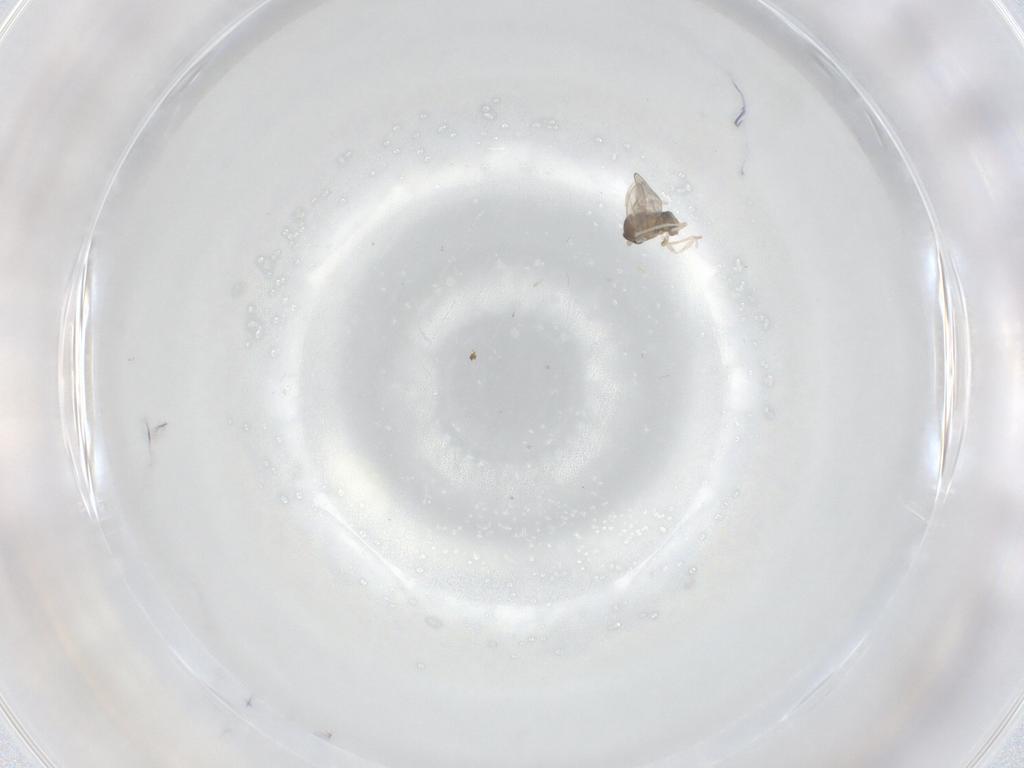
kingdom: Animalia
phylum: Arthropoda
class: Insecta
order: Diptera
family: Cecidomyiidae
